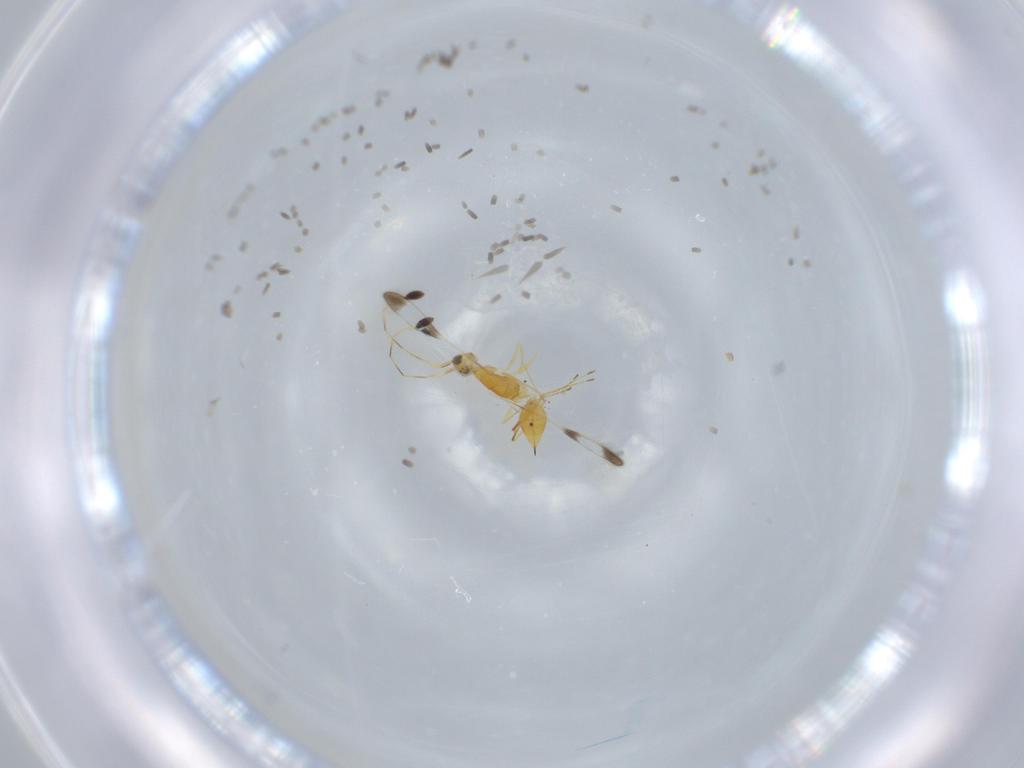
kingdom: Animalia
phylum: Arthropoda
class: Insecta
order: Hymenoptera
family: Mymaridae
